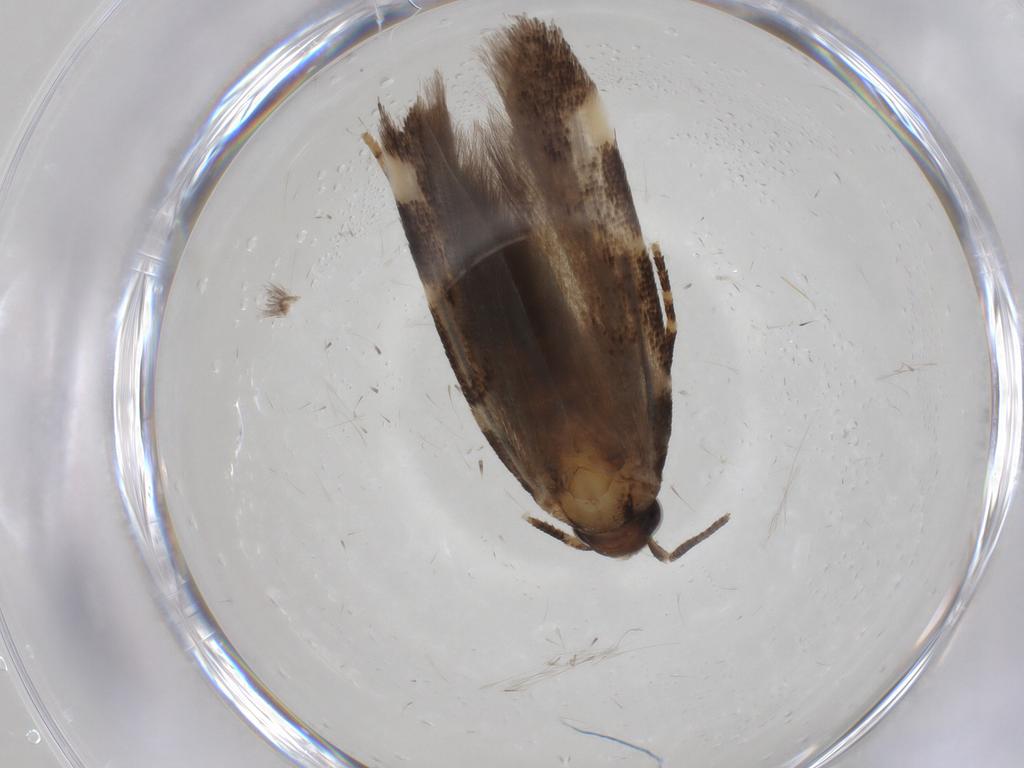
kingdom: Animalia
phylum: Arthropoda
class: Insecta
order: Lepidoptera
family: Gelechiidae
